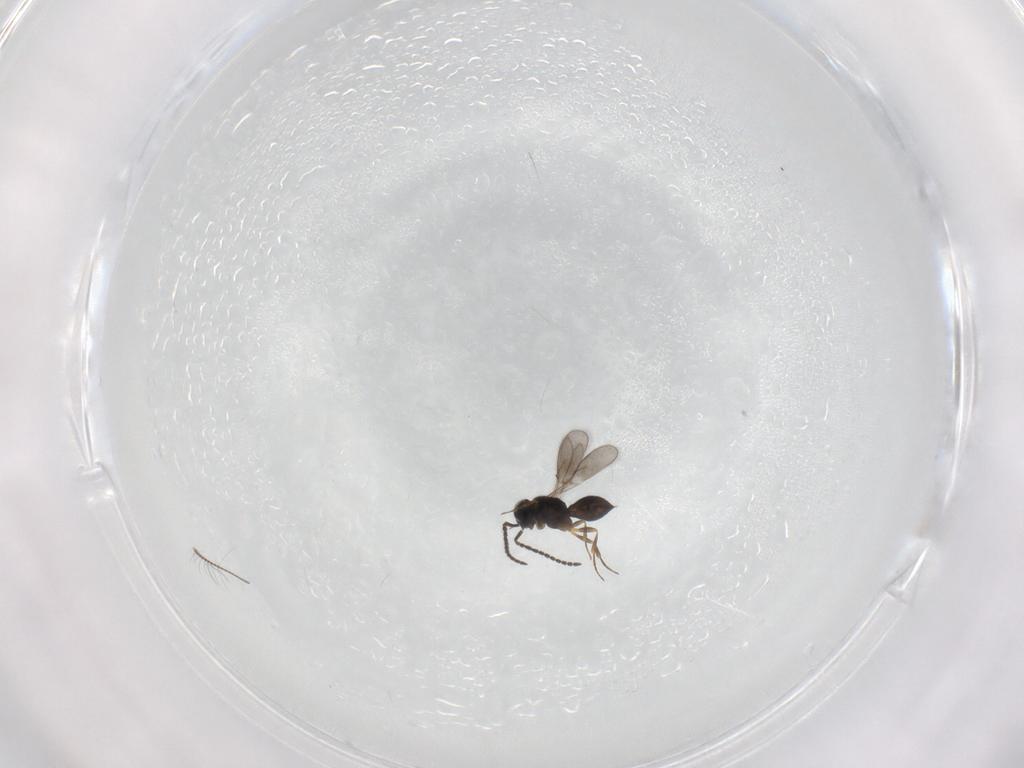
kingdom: Animalia
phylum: Arthropoda
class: Insecta
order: Hymenoptera
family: Scelionidae
